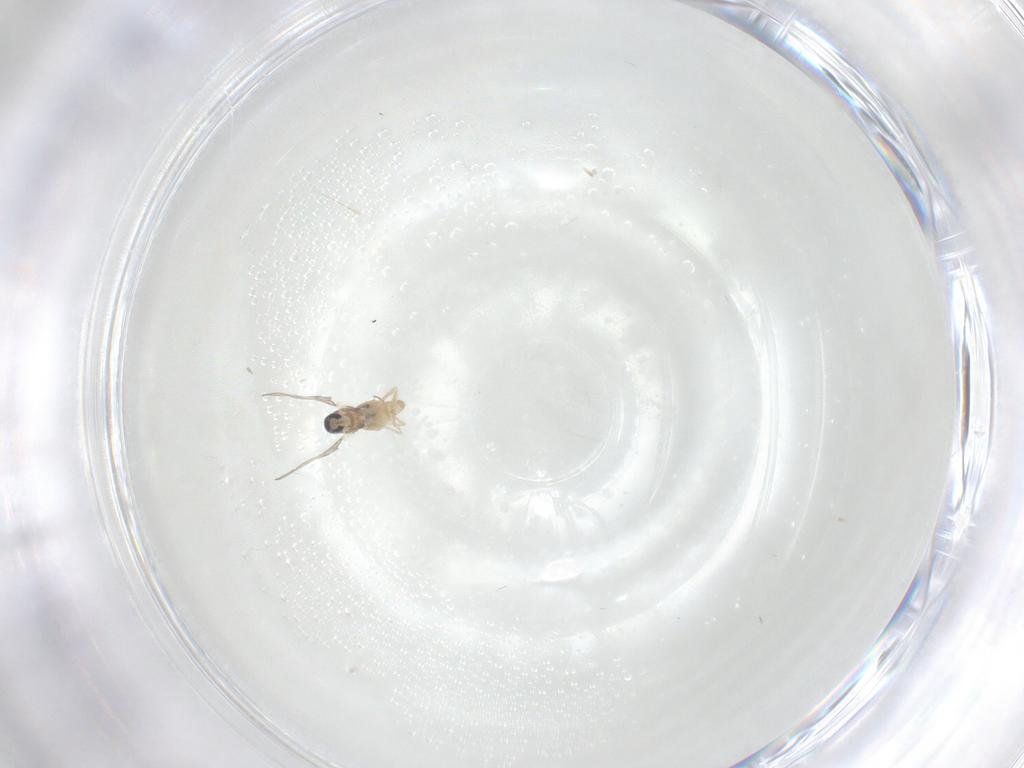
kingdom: Animalia
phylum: Arthropoda
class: Insecta
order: Diptera
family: Cecidomyiidae
